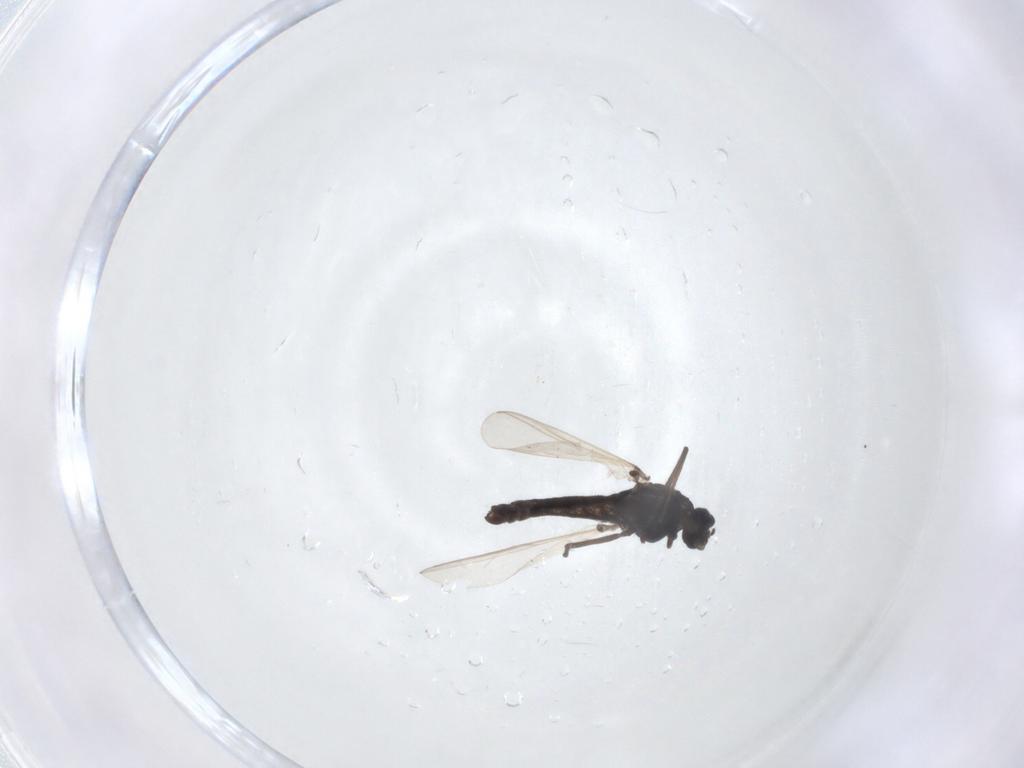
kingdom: Animalia
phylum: Arthropoda
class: Insecta
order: Diptera
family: Chironomidae
